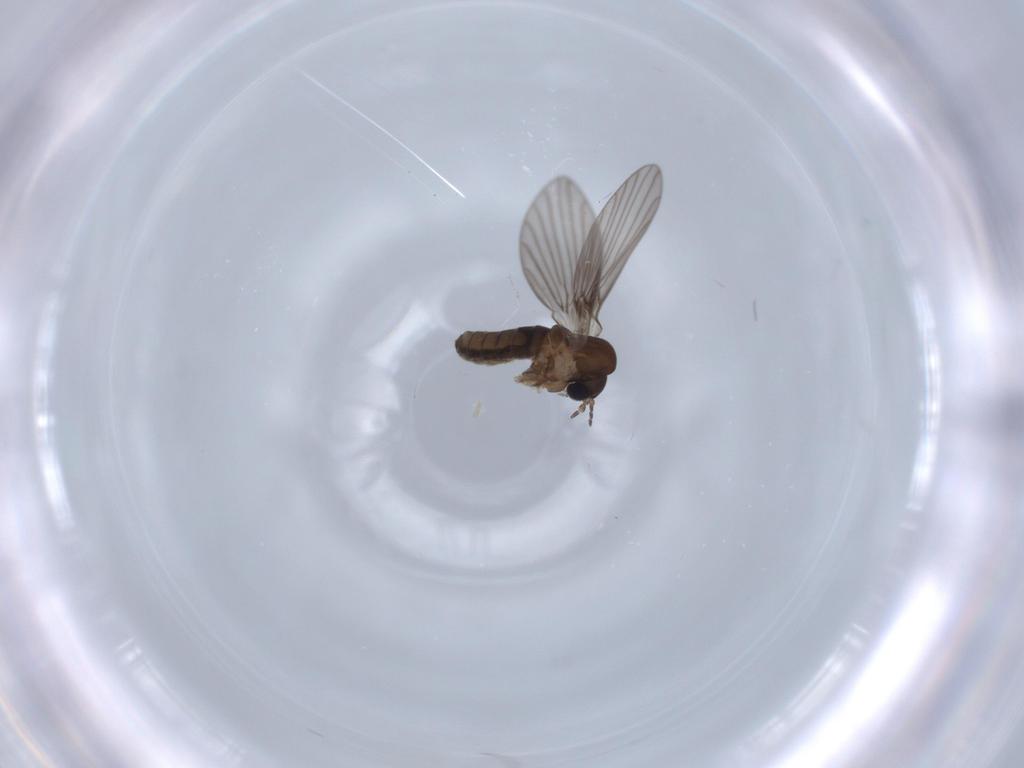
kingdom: Animalia
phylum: Arthropoda
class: Insecta
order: Diptera
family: Psychodidae
